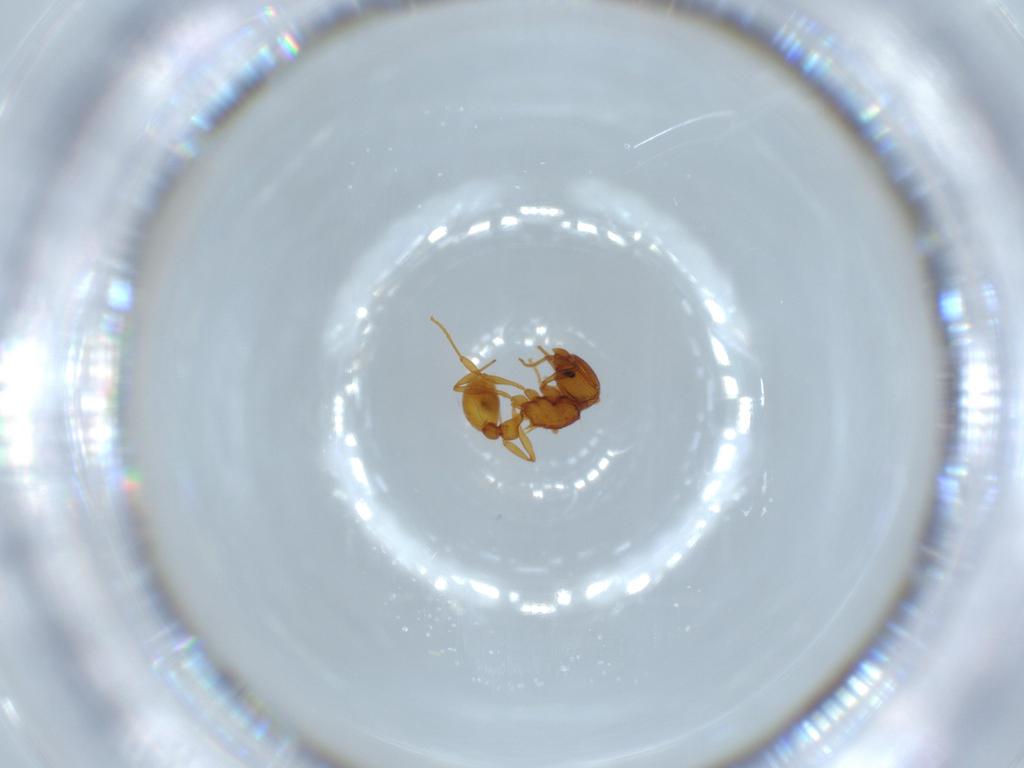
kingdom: Animalia
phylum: Arthropoda
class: Insecta
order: Hymenoptera
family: Formicidae
